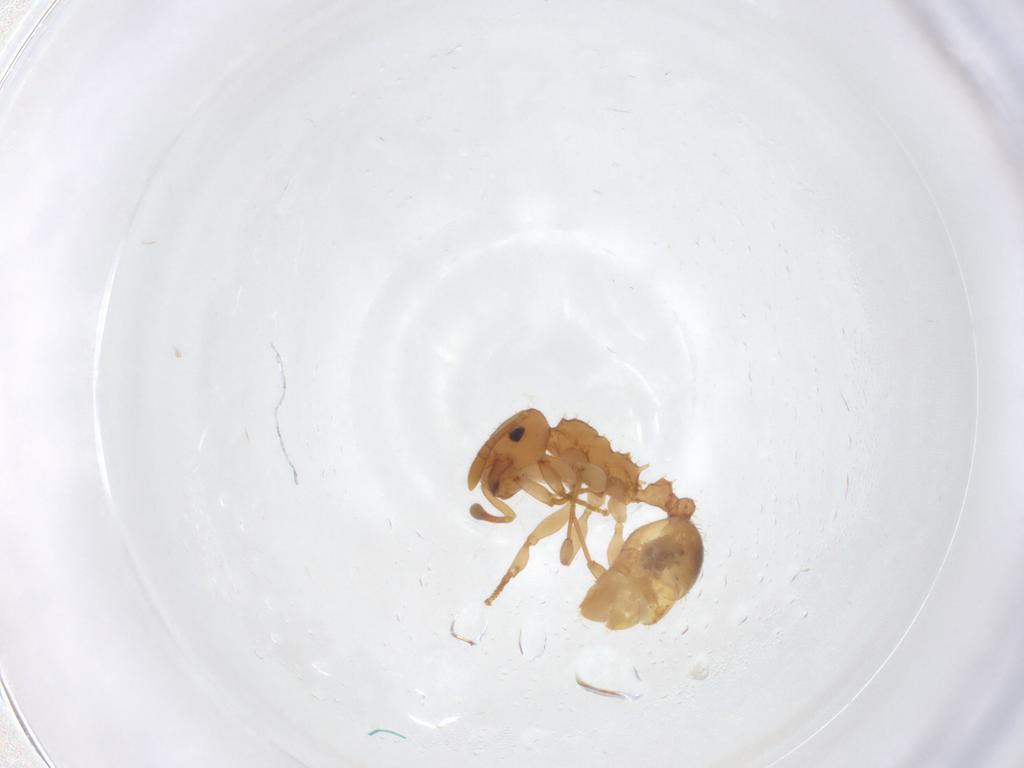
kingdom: Animalia
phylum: Arthropoda
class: Insecta
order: Hymenoptera
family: Formicidae
